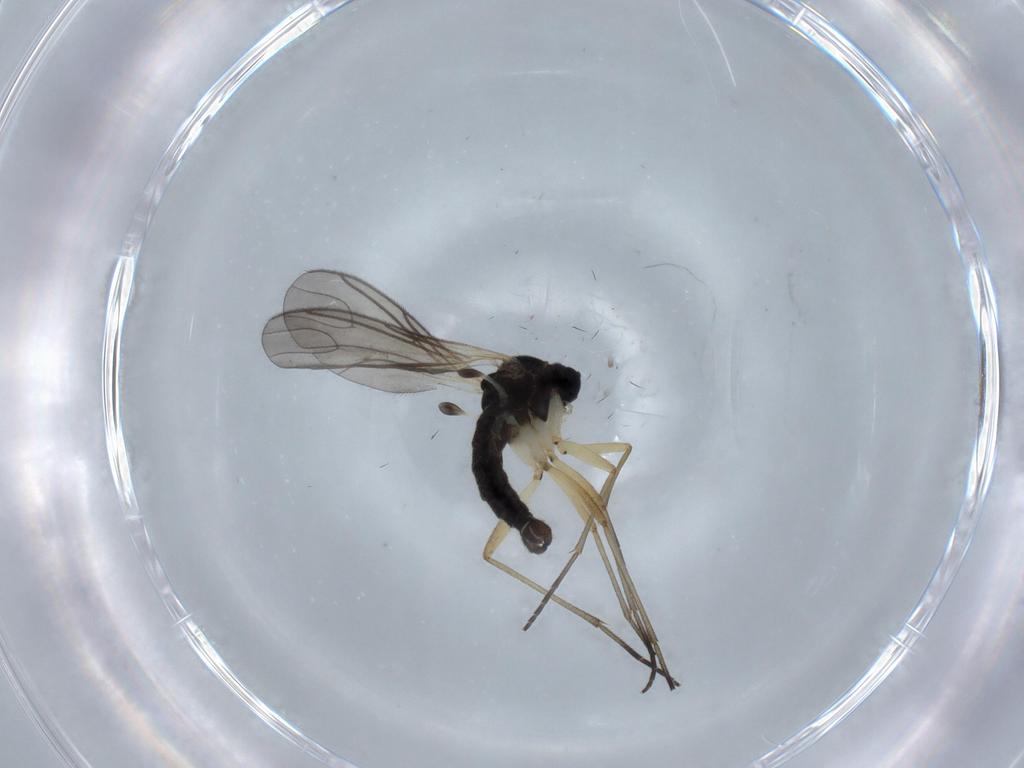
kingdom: Animalia
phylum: Arthropoda
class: Insecta
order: Diptera
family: Sciaridae
